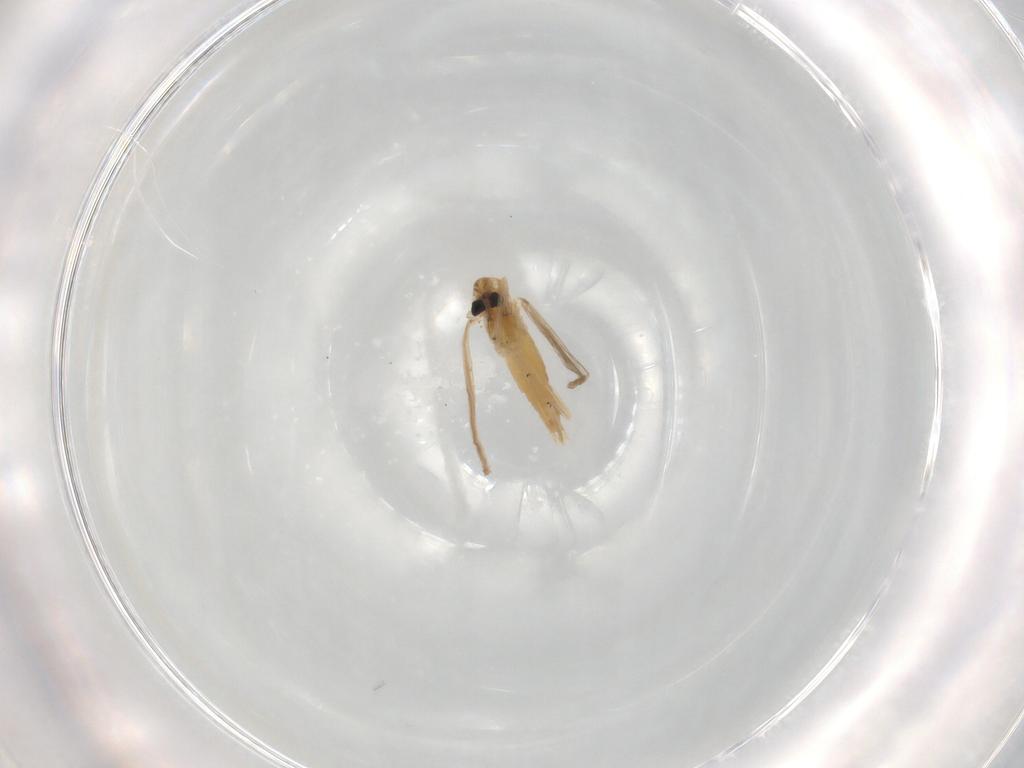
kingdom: Animalia
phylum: Arthropoda
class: Insecta
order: Diptera
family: Chironomidae
